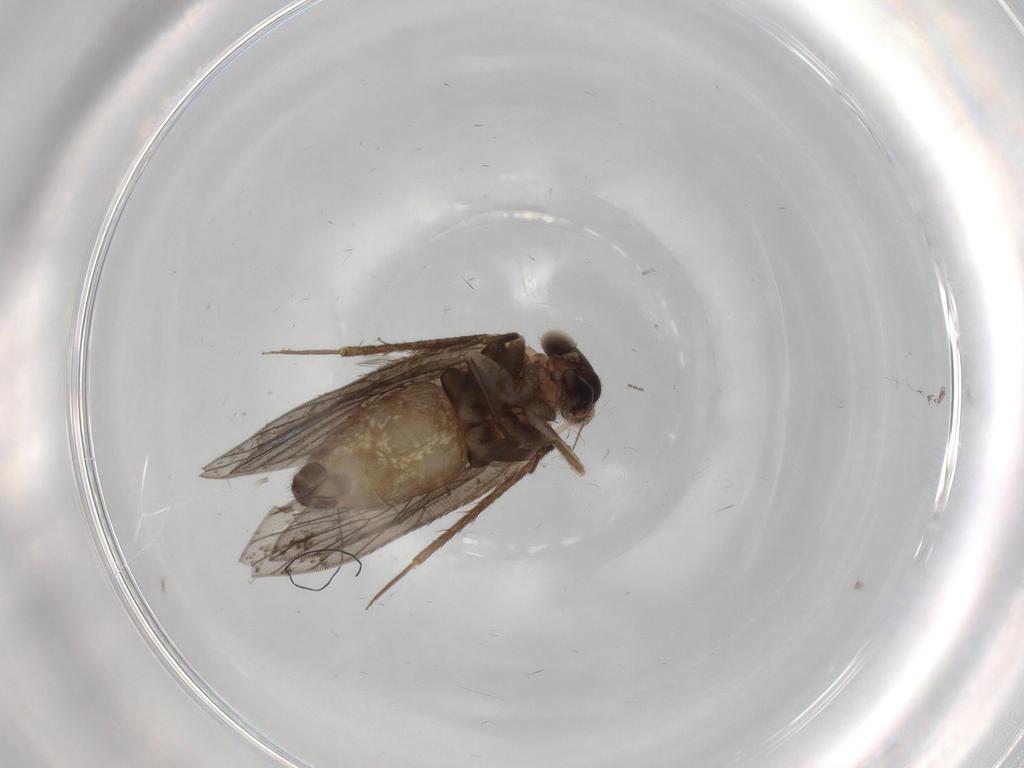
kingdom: Animalia
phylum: Arthropoda
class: Insecta
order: Psocodea
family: Lepidopsocidae
